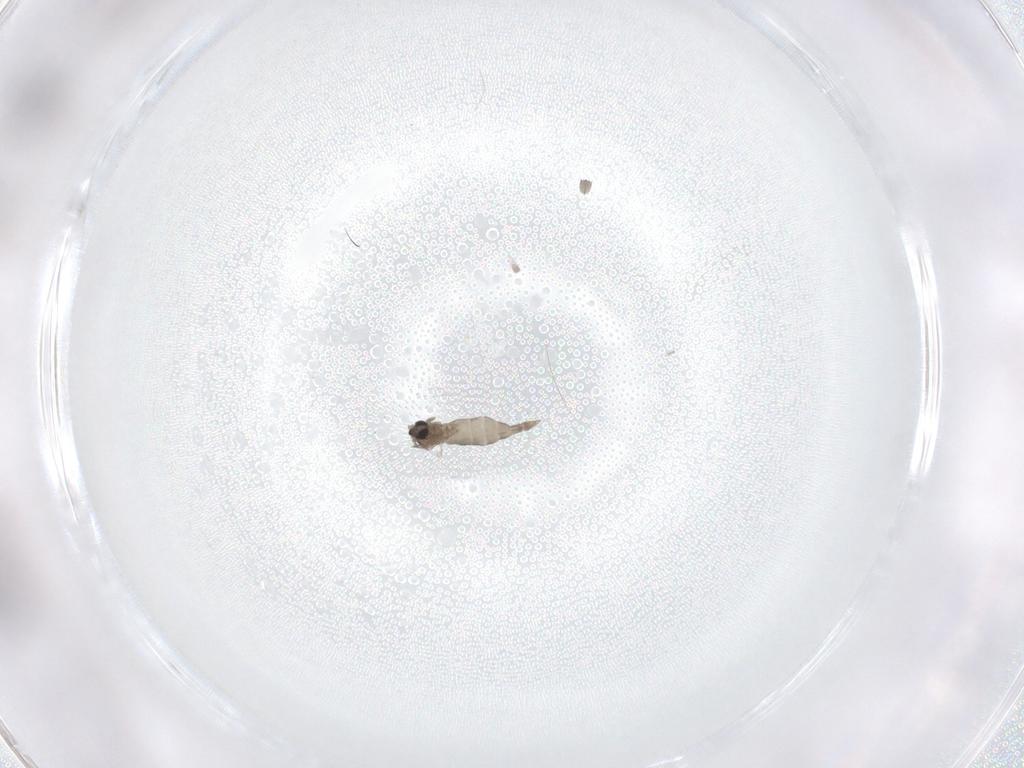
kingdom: Animalia
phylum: Arthropoda
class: Insecta
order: Diptera
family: Cecidomyiidae
